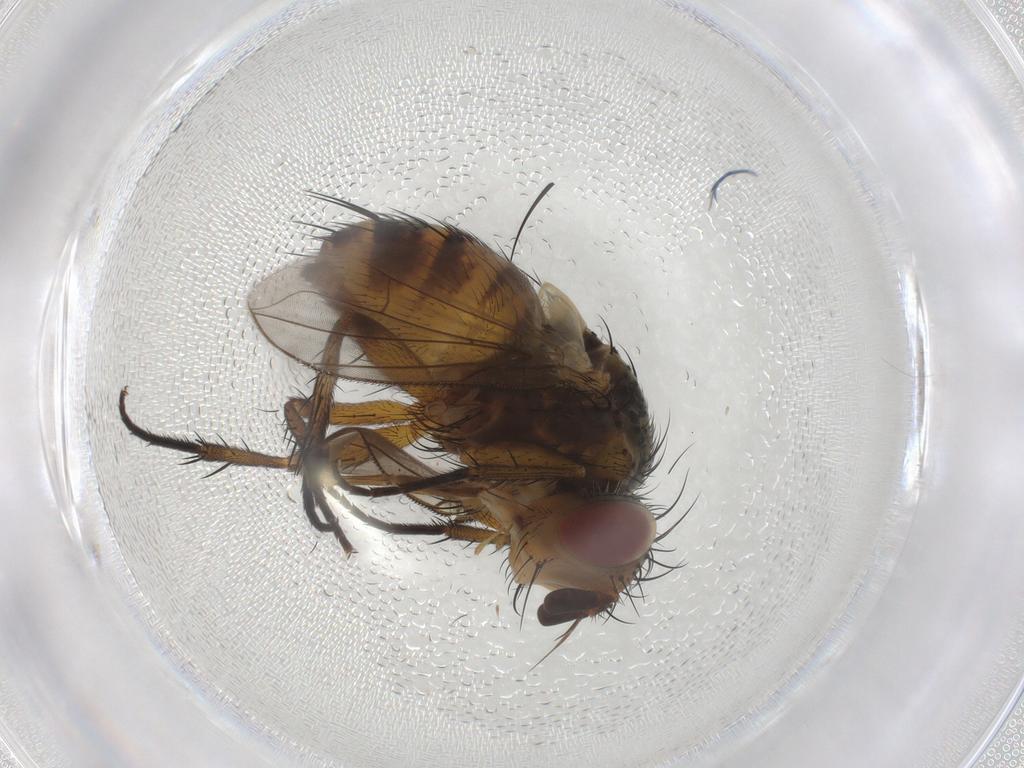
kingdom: Animalia
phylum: Arthropoda
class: Insecta
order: Diptera
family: Tachinidae
